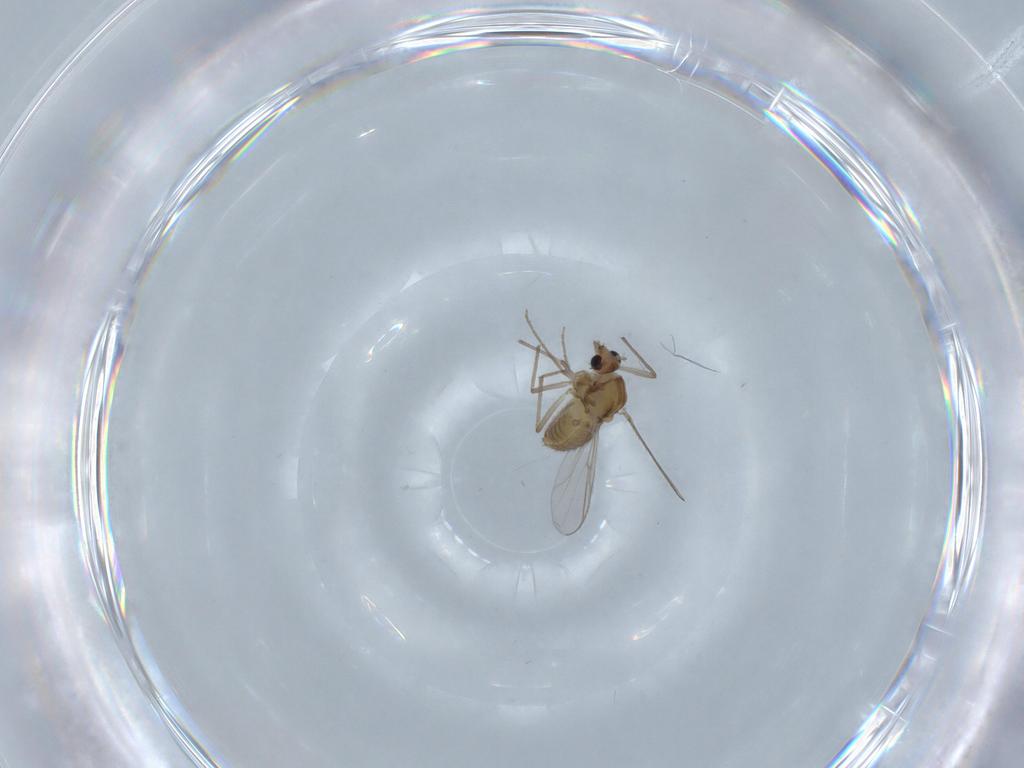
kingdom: Animalia
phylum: Arthropoda
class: Insecta
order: Diptera
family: Chironomidae
